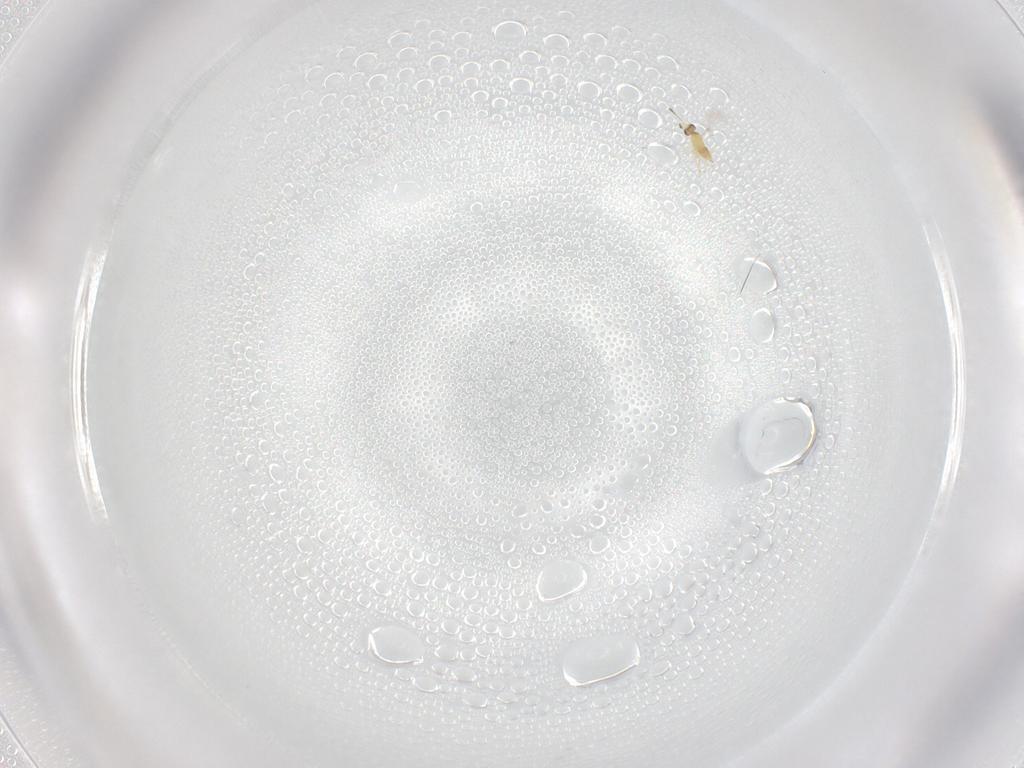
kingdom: Animalia
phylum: Arthropoda
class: Insecta
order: Hymenoptera
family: Mymaridae
